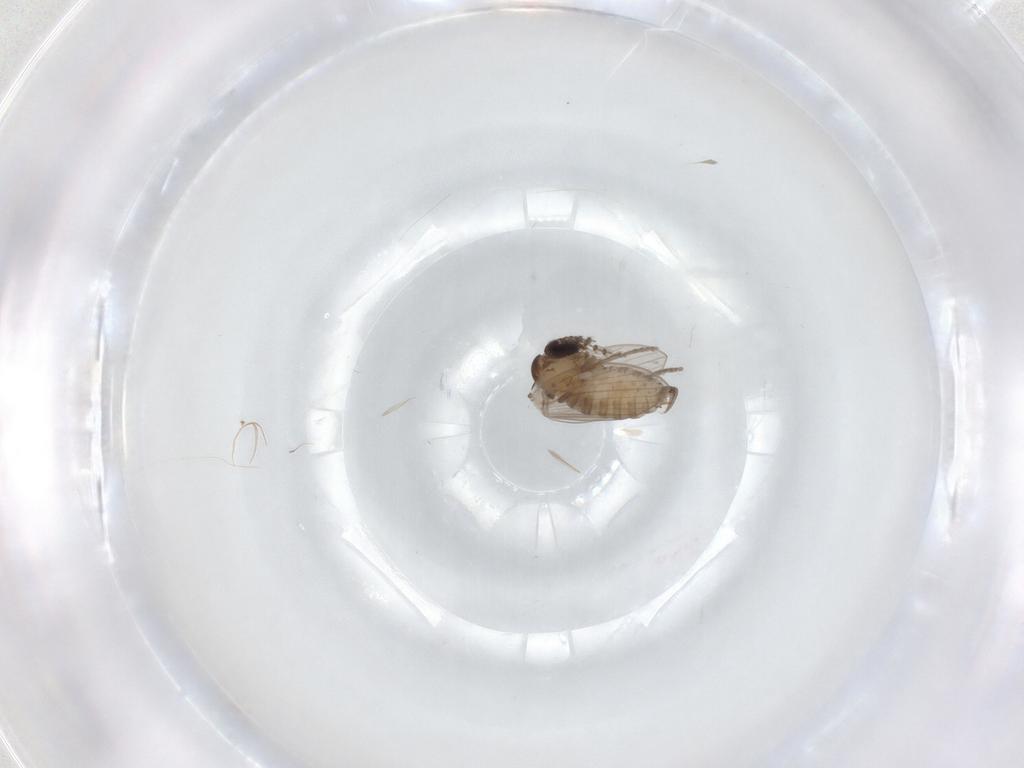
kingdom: Animalia
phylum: Arthropoda
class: Insecta
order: Diptera
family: Psychodidae
